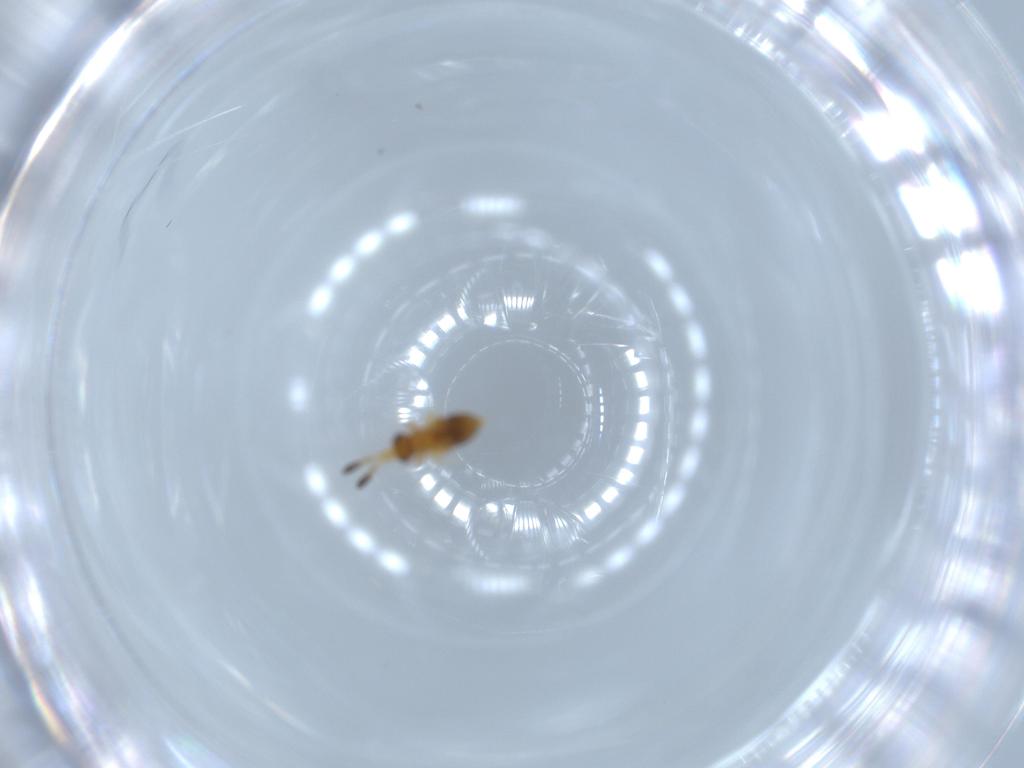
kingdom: Animalia
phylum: Arthropoda
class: Insecta
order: Hymenoptera
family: Ceraphronidae
